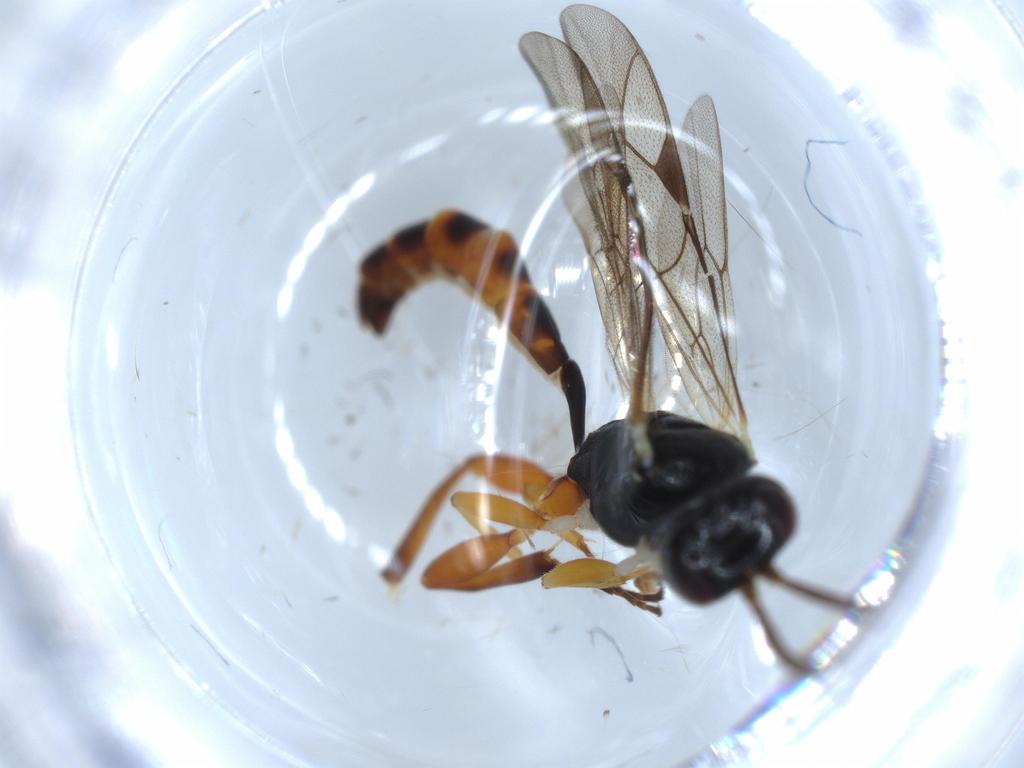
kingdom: Animalia
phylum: Arthropoda
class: Insecta
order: Hymenoptera
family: Ichneumonidae
